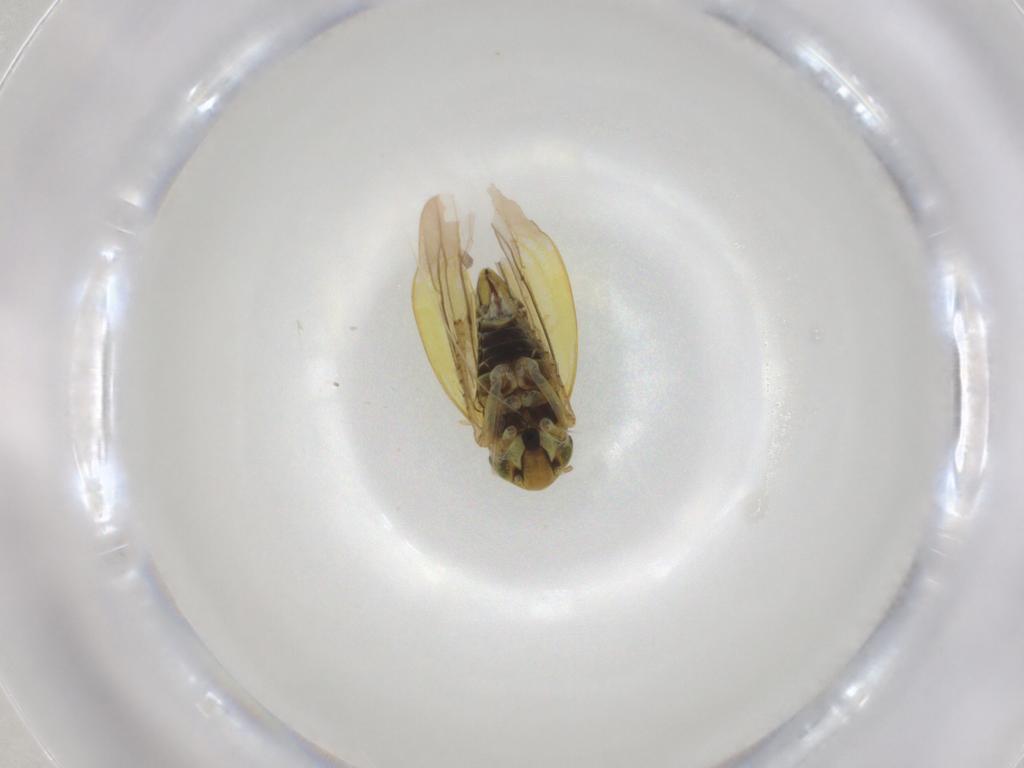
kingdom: Animalia
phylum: Arthropoda
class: Insecta
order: Hemiptera
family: Cicadellidae
